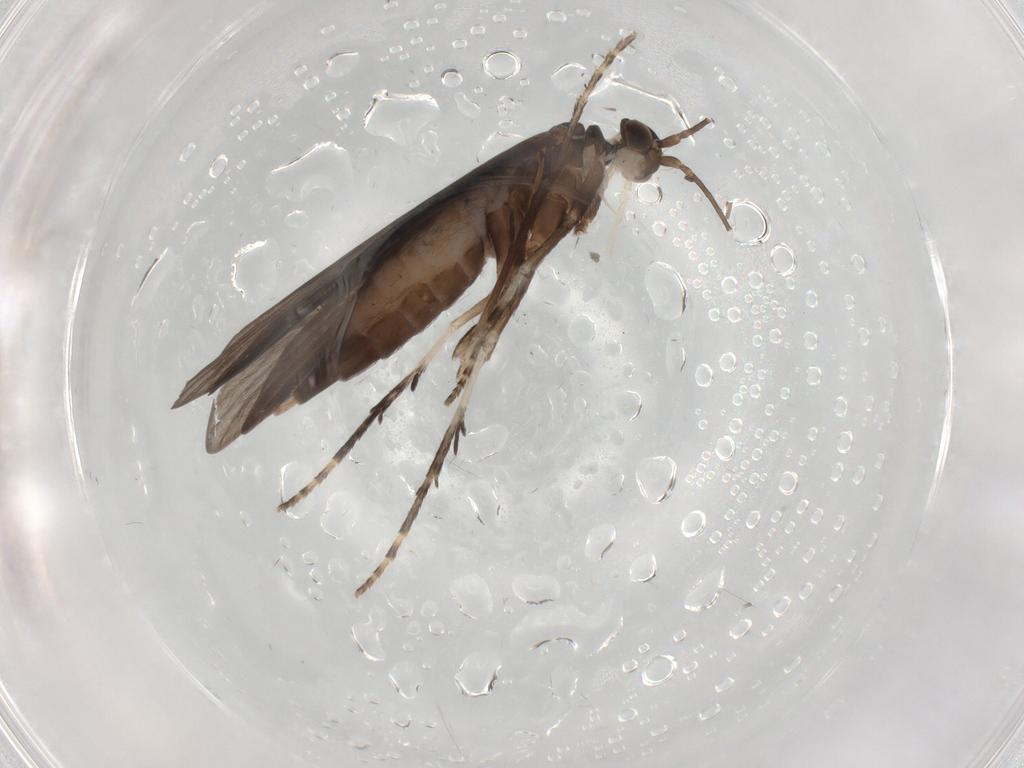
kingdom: Animalia
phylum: Arthropoda
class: Insecta
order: Trichoptera
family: Xiphocentronidae
